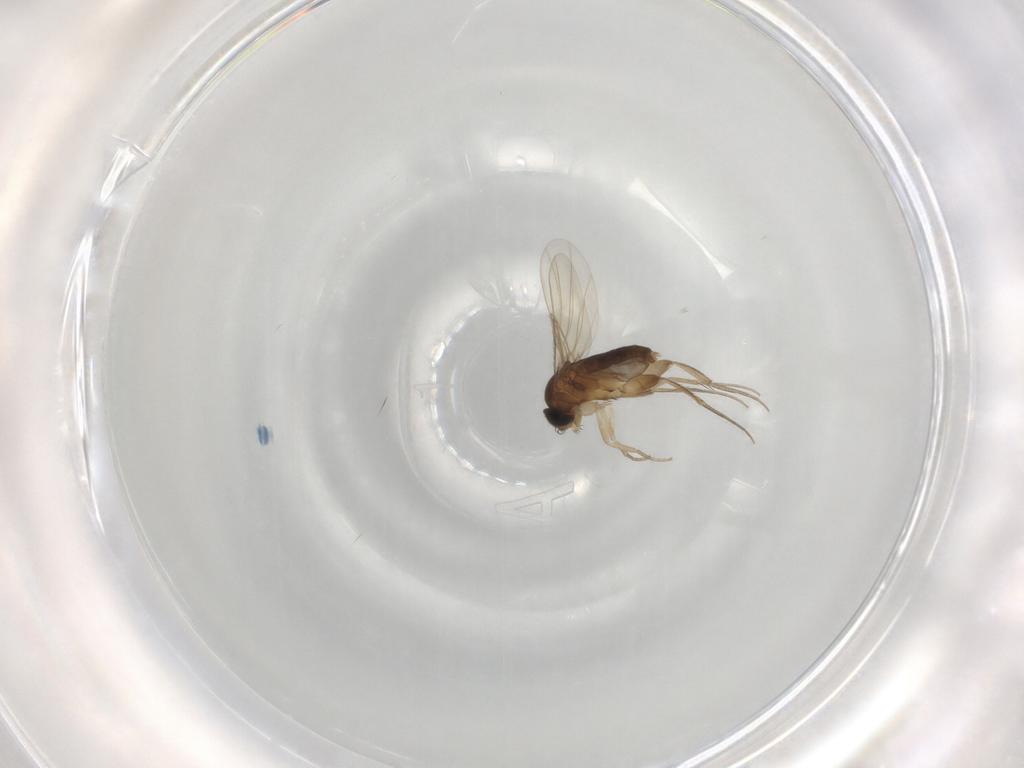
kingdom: Animalia
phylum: Arthropoda
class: Insecta
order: Diptera
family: Phoridae
